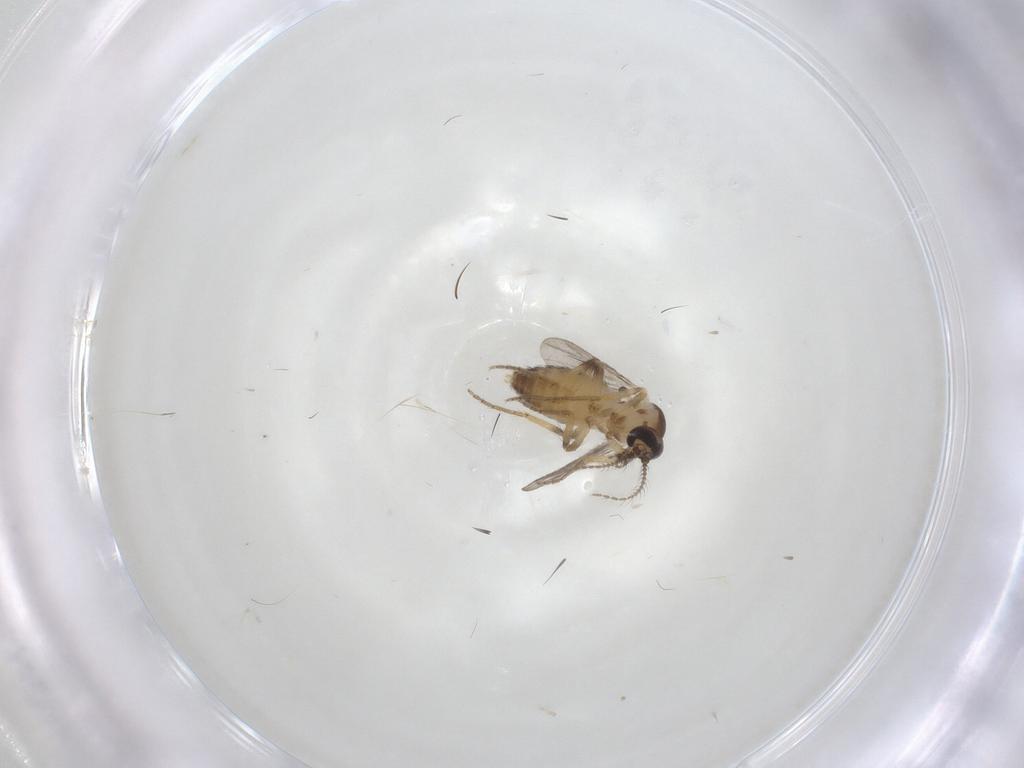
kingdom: Animalia
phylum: Arthropoda
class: Insecta
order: Diptera
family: Ceratopogonidae
